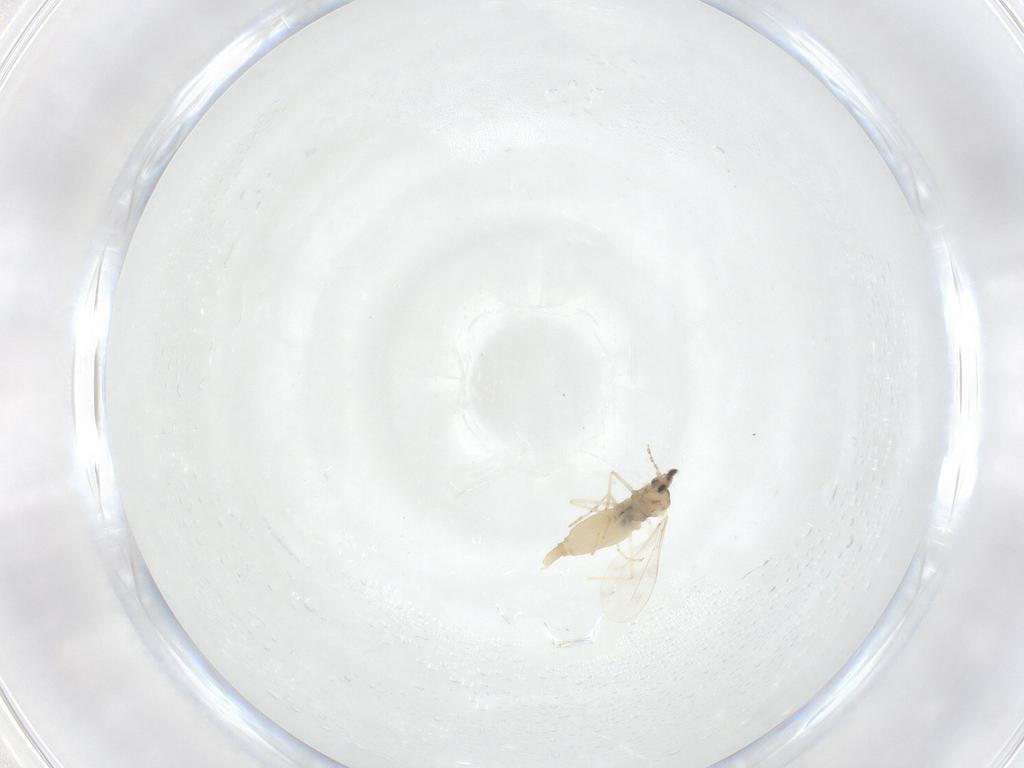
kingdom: Animalia
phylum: Arthropoda
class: Insecta
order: Diptera
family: Cecidomyiidae
